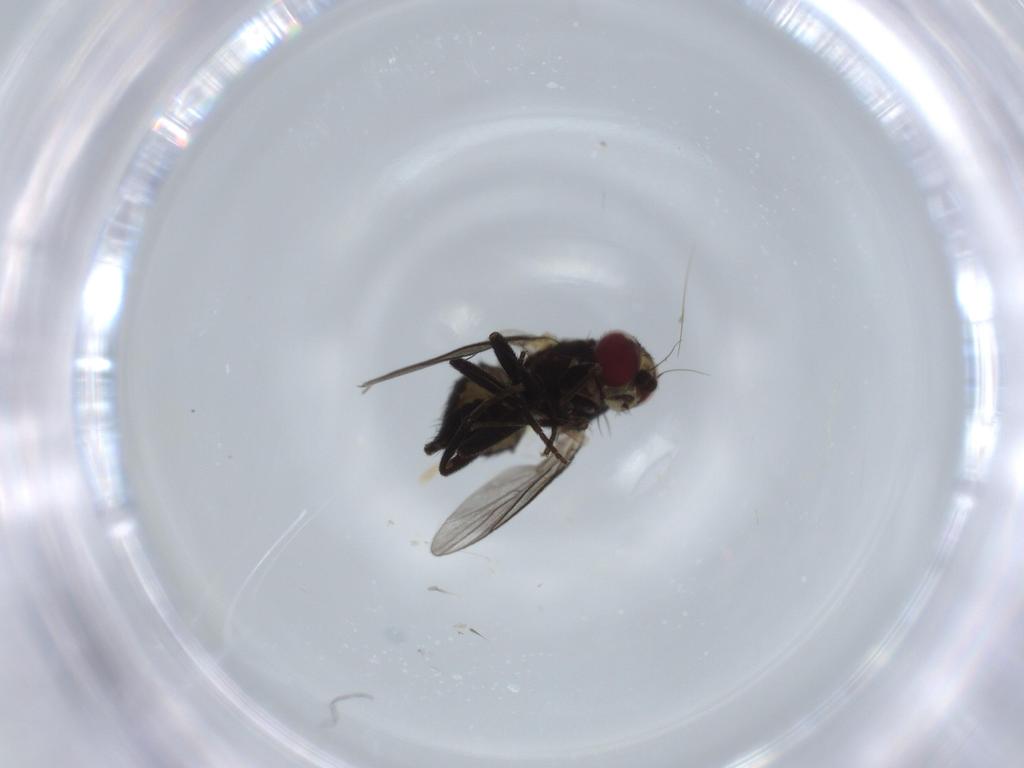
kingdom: Animalia
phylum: Arthropoda
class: Insecta
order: Diptera
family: Agromyzidae
